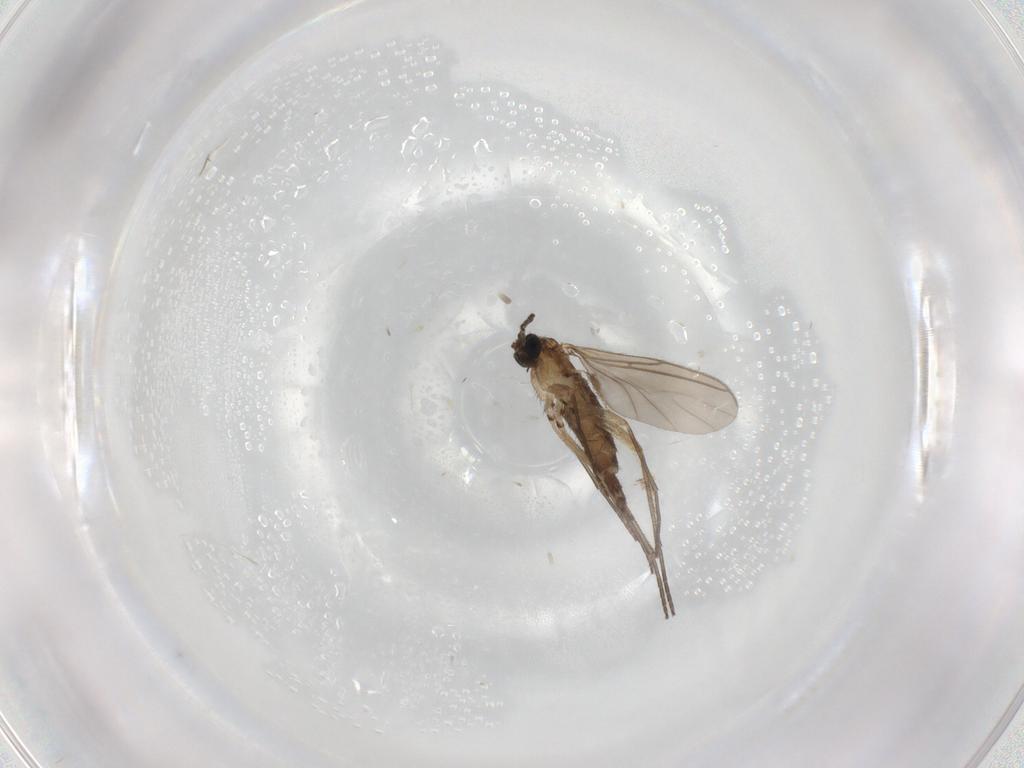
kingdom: Animalia
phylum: Arthropoda
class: Insecta
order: Diptera
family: Sciaridae
